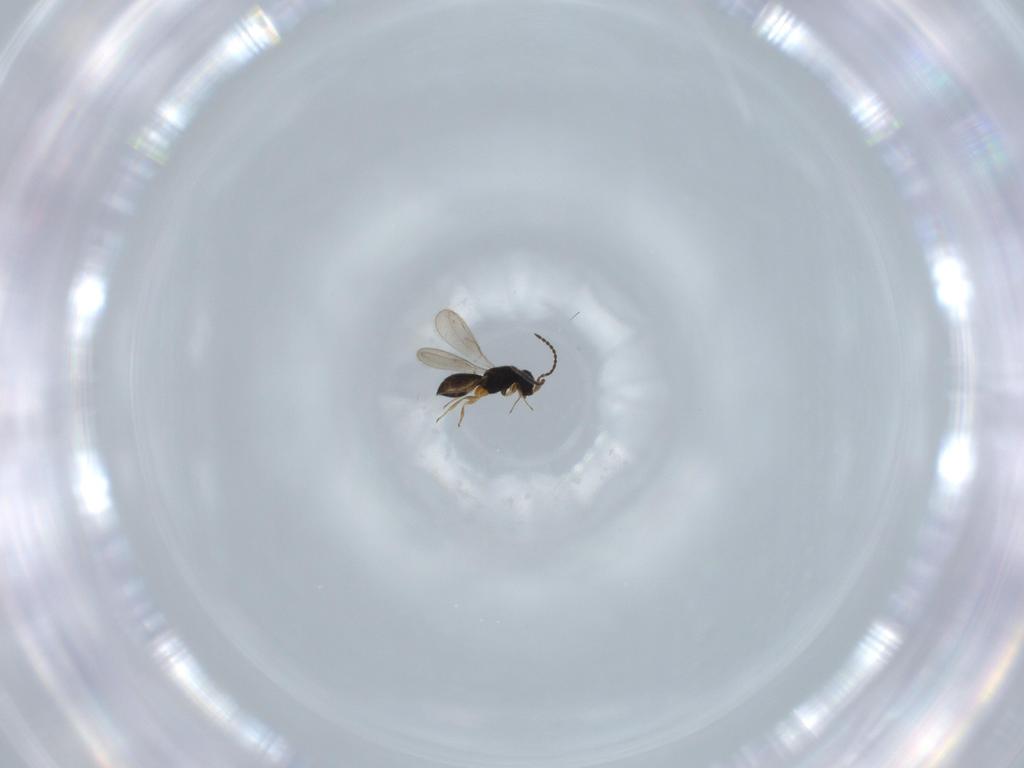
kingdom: Animalia
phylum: Arthropoda
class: Insecta
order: Hymenoptera
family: Scelionidae
